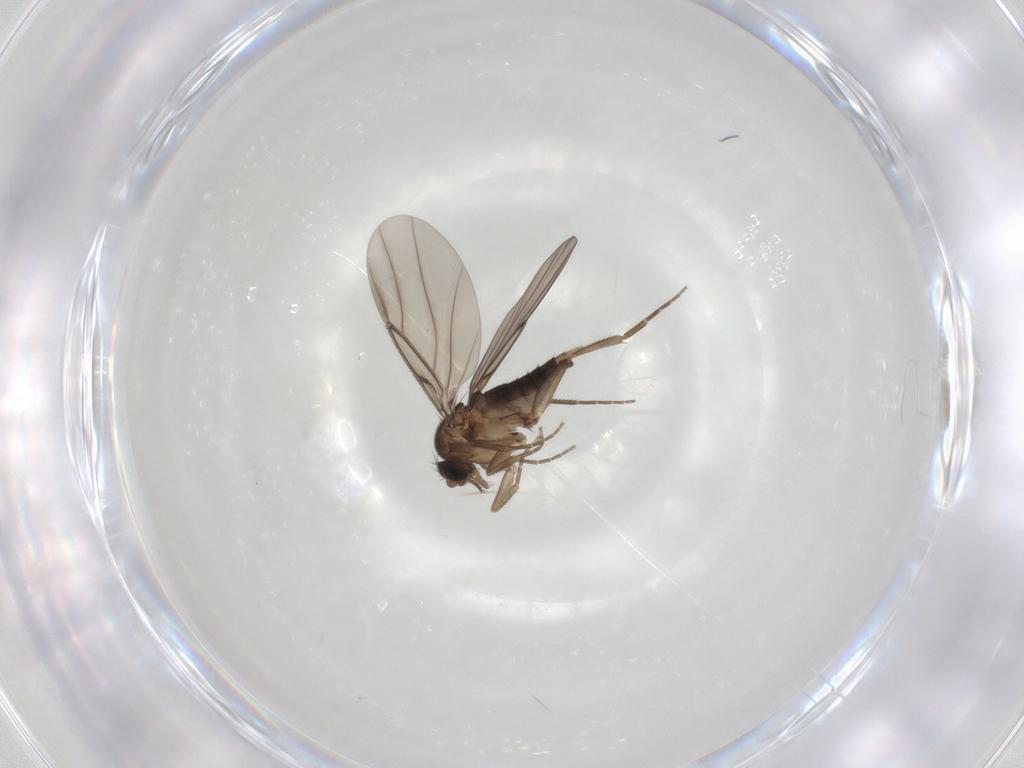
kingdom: Animalia
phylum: Arthropoda
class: Insecta
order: Diptera
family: Phoridae
